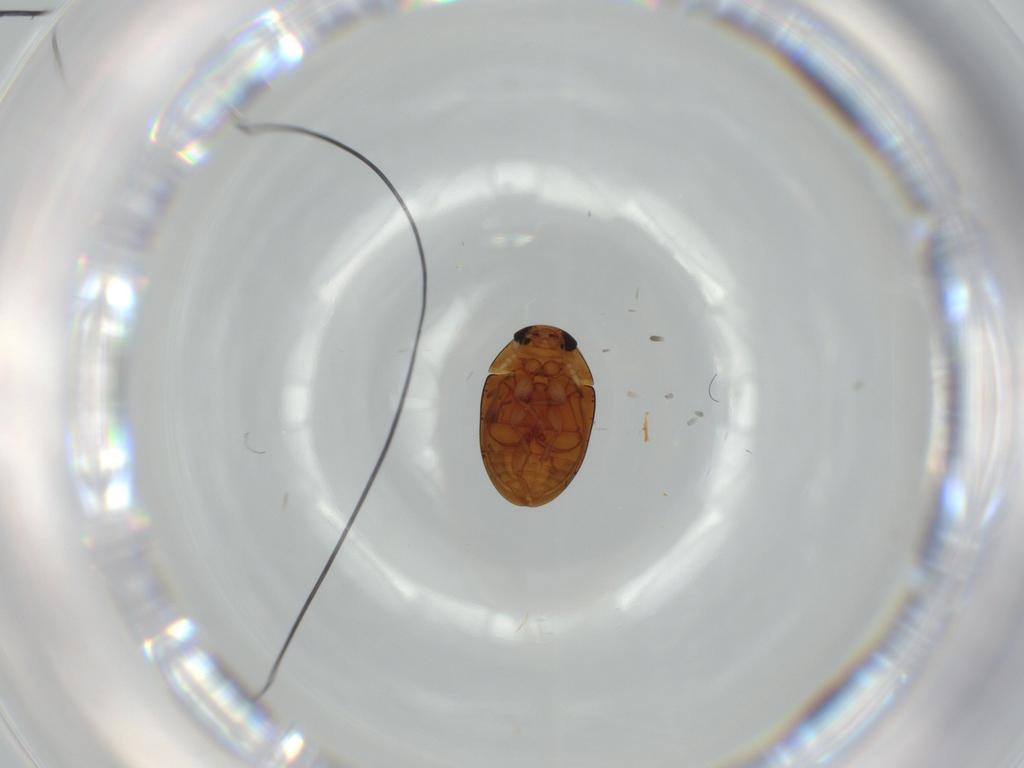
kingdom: Animalia
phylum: Arthropoda
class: Insecta
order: Coleoptera
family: Phalacridae
